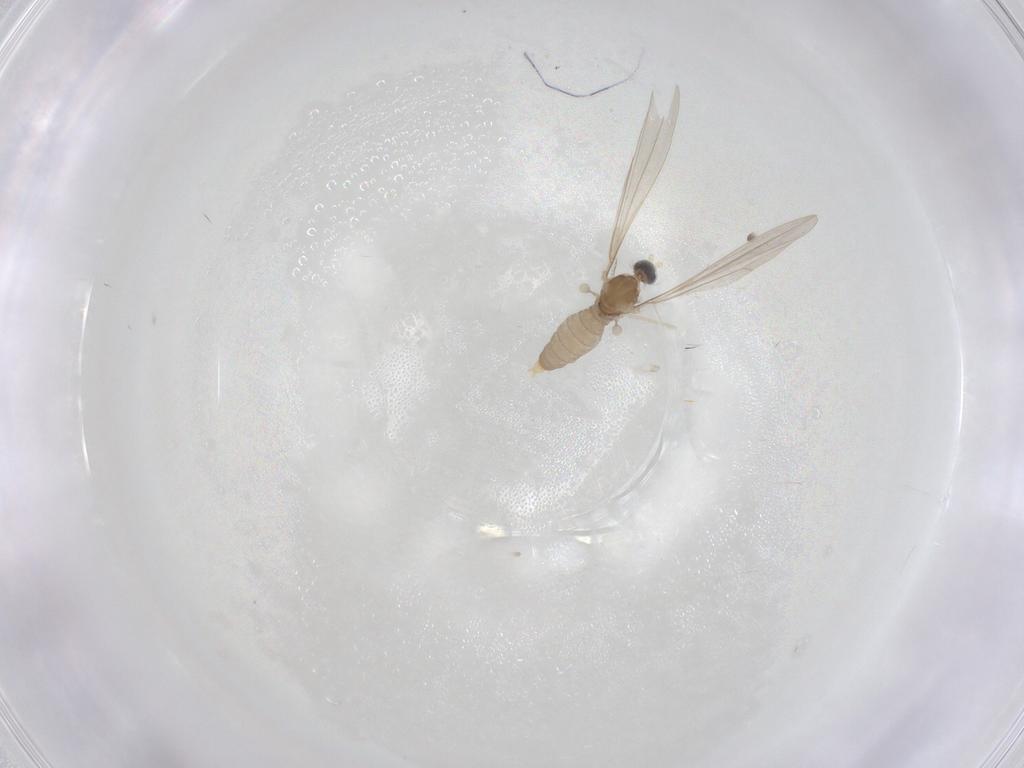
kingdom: Animalia
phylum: Arthropoda
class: Insecta
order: Diptera
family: Cecidomyiidae
